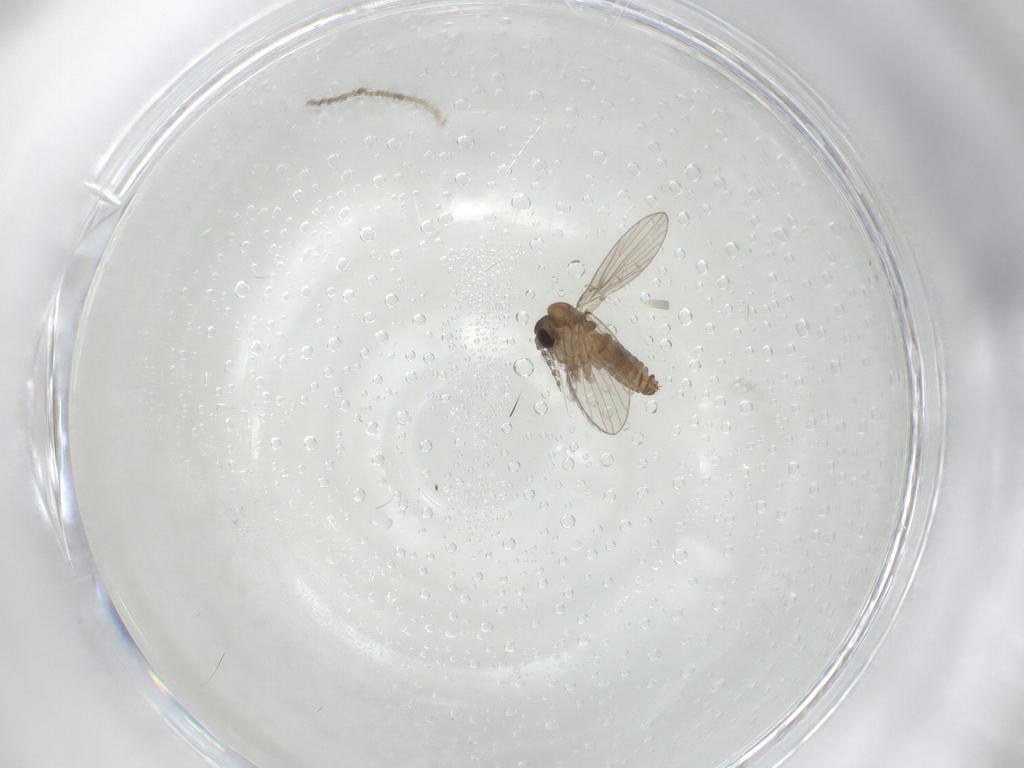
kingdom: Animalia
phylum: Arthropoda
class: Insecta
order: Diptera
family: Psychodidae
